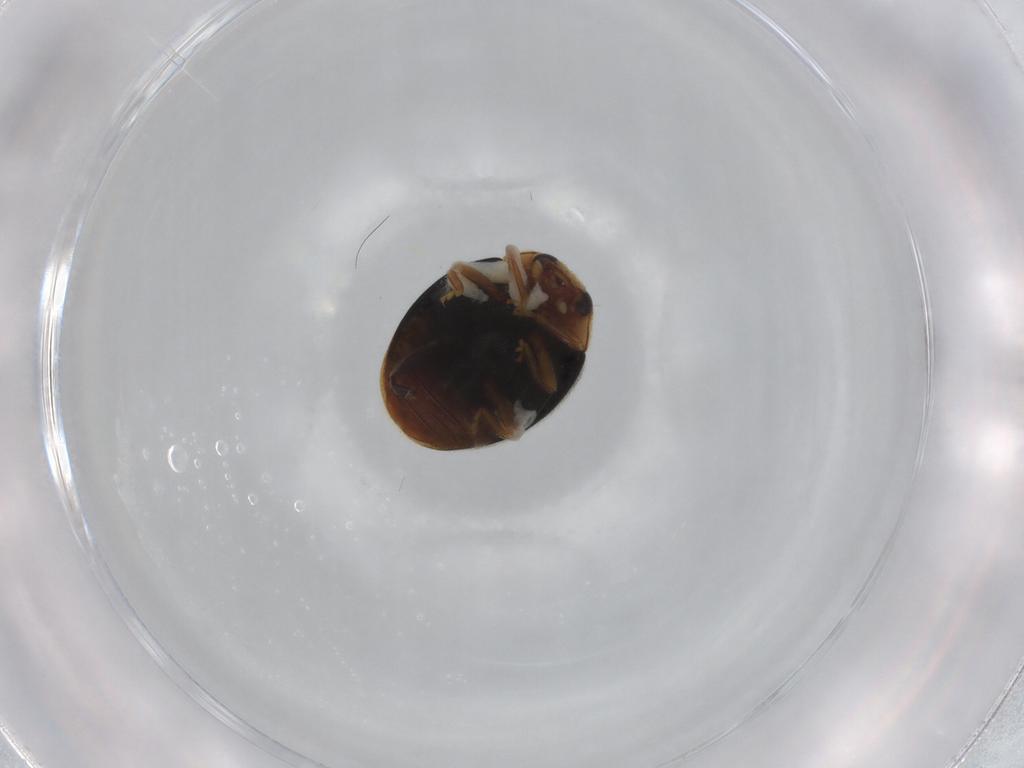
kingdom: Animalia
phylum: Arthropoda
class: Insecta
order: Coleoptera
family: Coccinellidae
